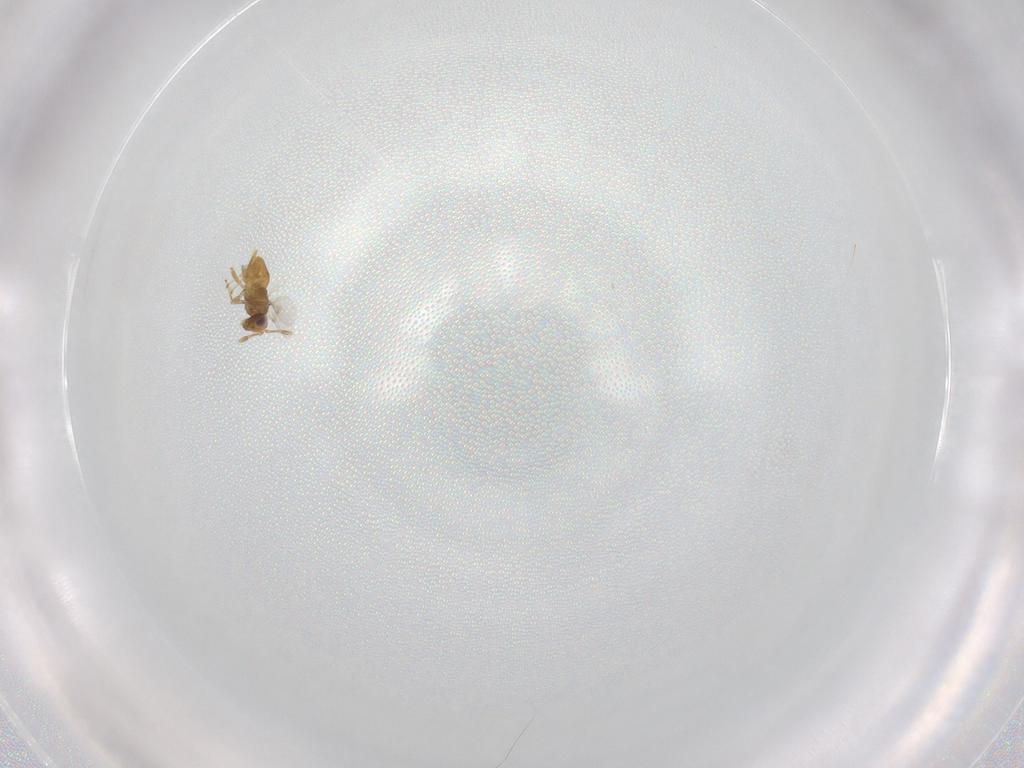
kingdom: Animalia
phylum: Arthropoda
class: Insecta
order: Hymenoptera
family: Encyrtidae
